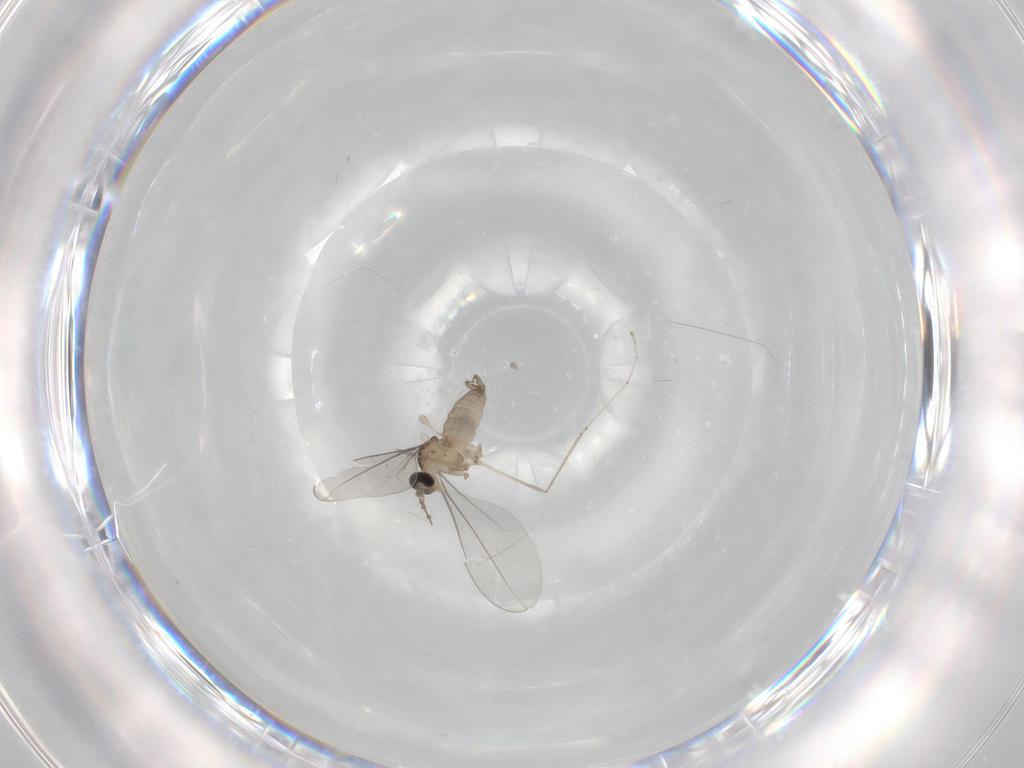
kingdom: Animalia
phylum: Arthropoda
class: Insecta
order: Diptera
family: Cecidomyiidae
